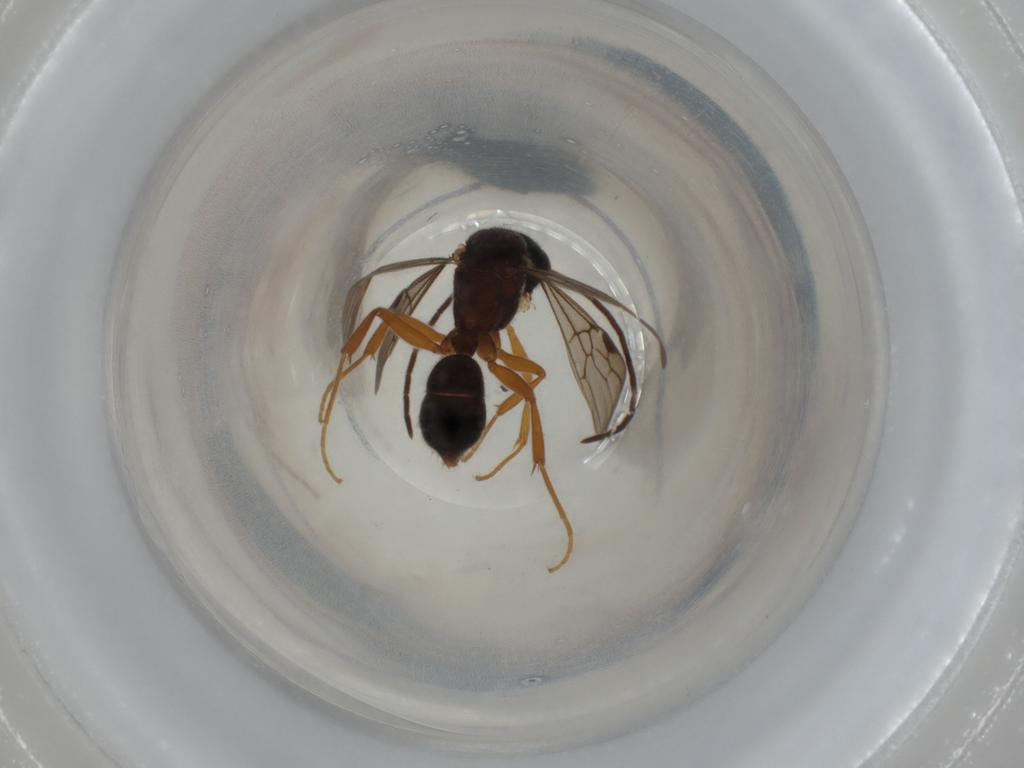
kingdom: Animalia
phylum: Arthropoda
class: Insecta
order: Hymenoptera
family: Formicidae
